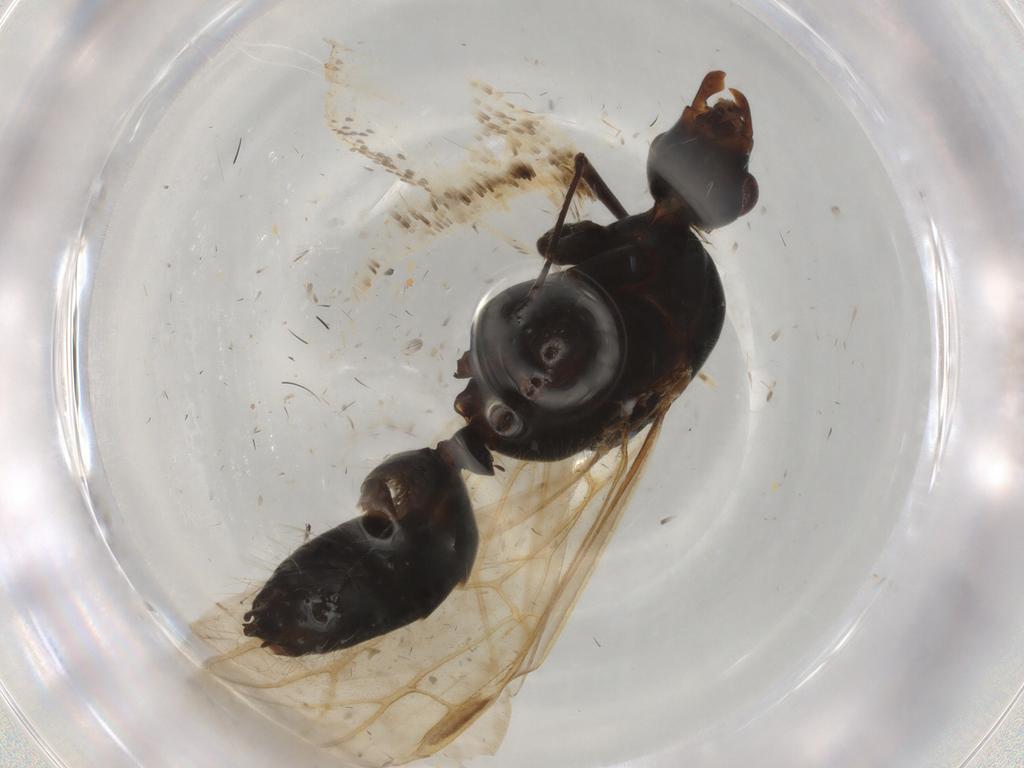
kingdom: Animalia
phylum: Arthropoda
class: Insecta
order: Hymenoptera
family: Formicidae
